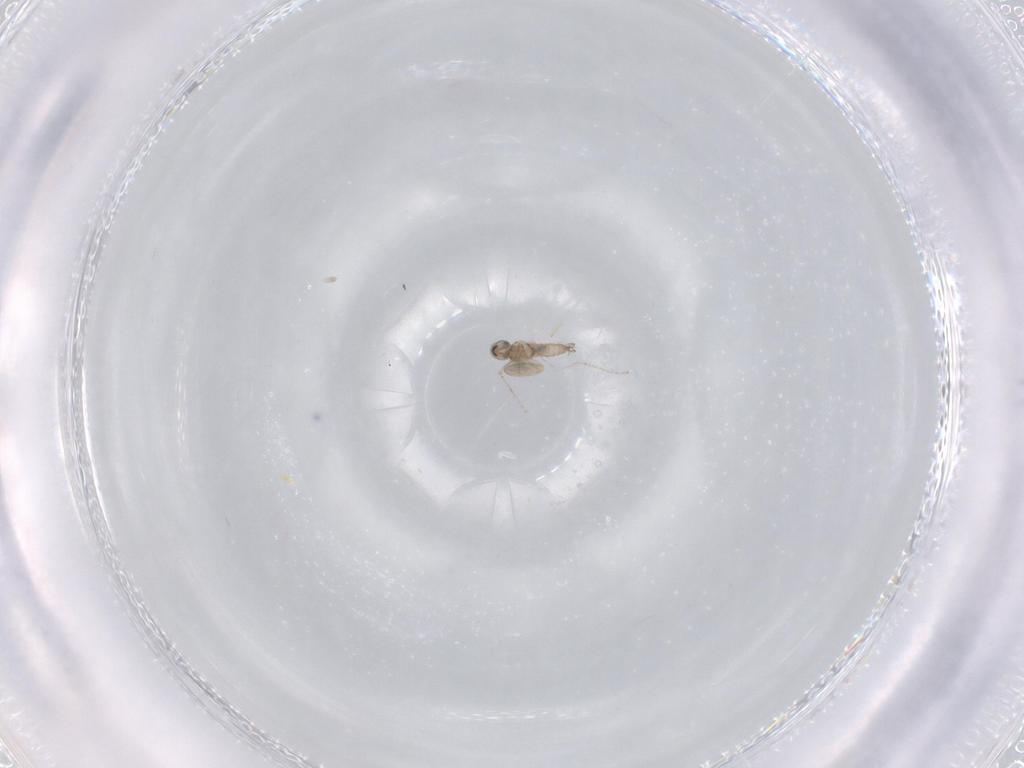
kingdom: Animalia
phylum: Arthropoda
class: Insecta
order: Diptera
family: Cecidomyiidae
